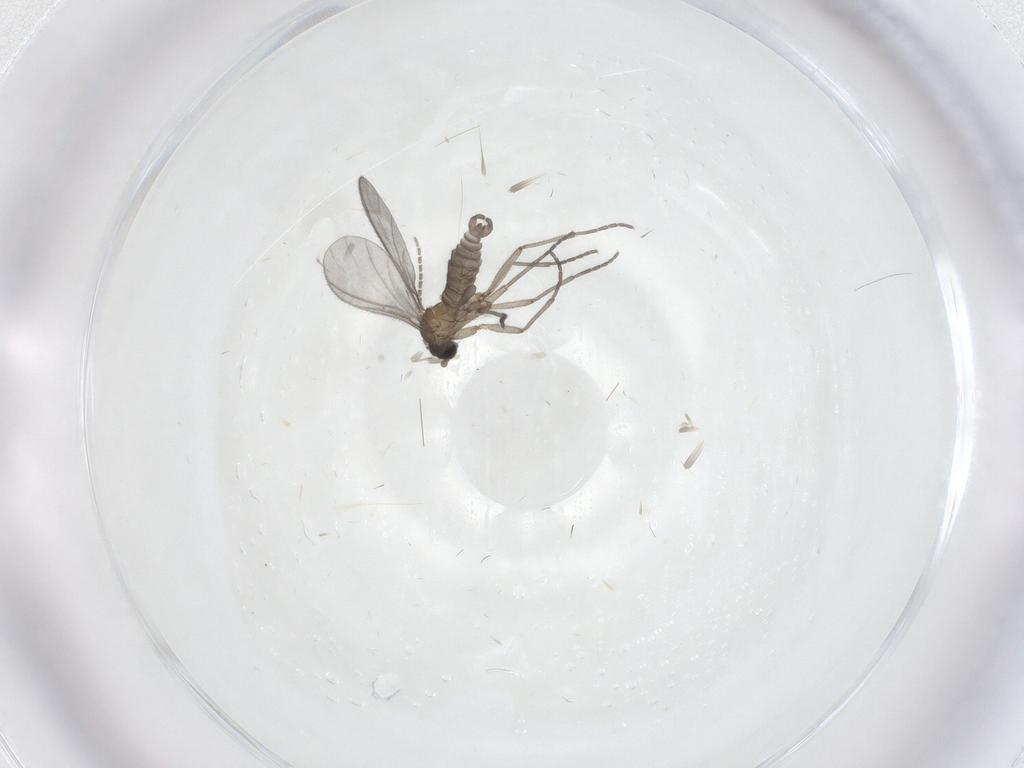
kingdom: Animalia
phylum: Arthropoda
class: Insecta
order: Diptera
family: Sciaridae
